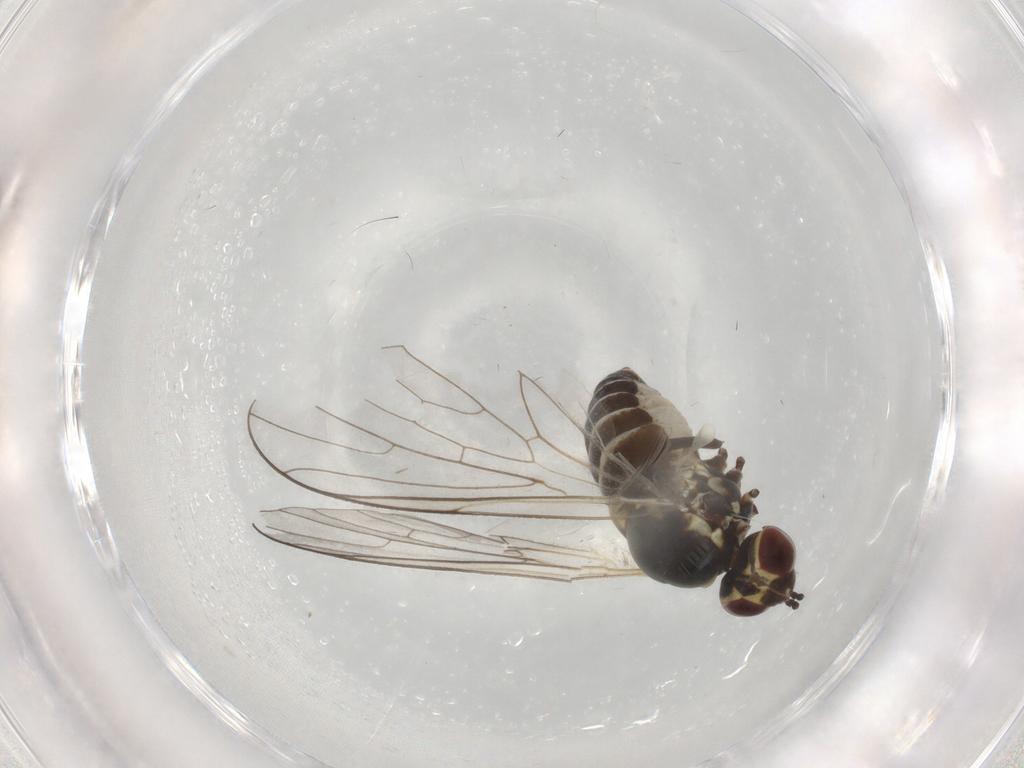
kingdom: Animalia
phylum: Arthropoda
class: Insecta
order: Diptera
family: Bombyliidae
